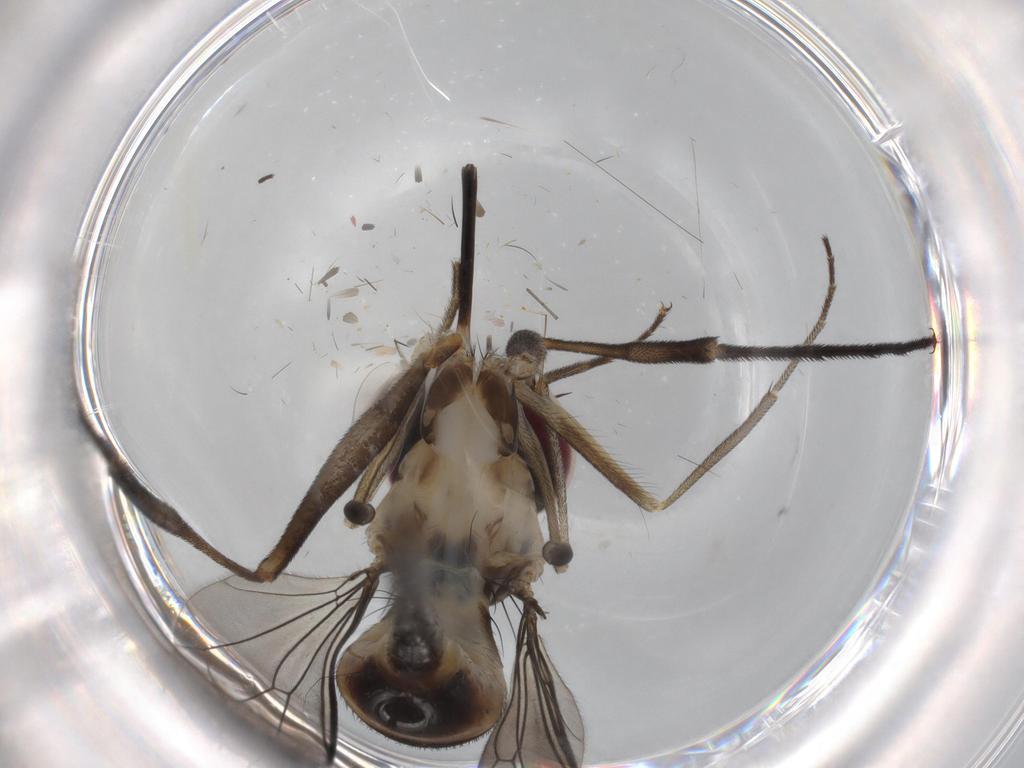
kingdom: Animalia
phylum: Arthropoda
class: Insecta
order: Diptera
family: Sciaridae
